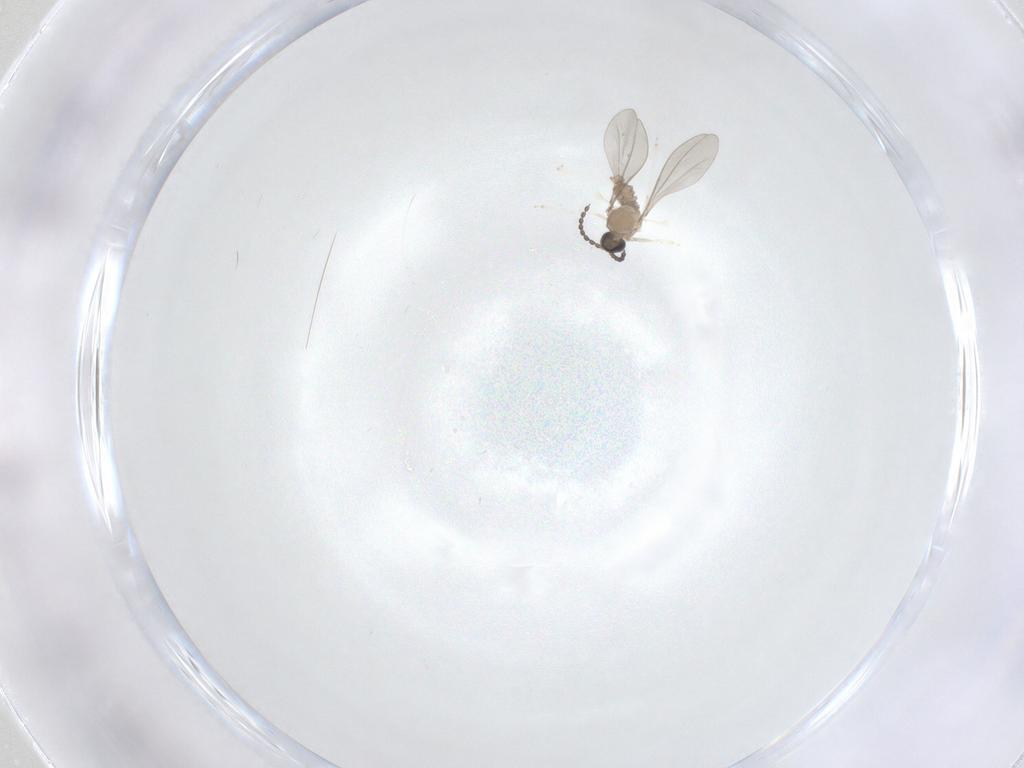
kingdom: Animalia
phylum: Arthropoda
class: Insecta
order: Diptera
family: Cecidomyiidae
